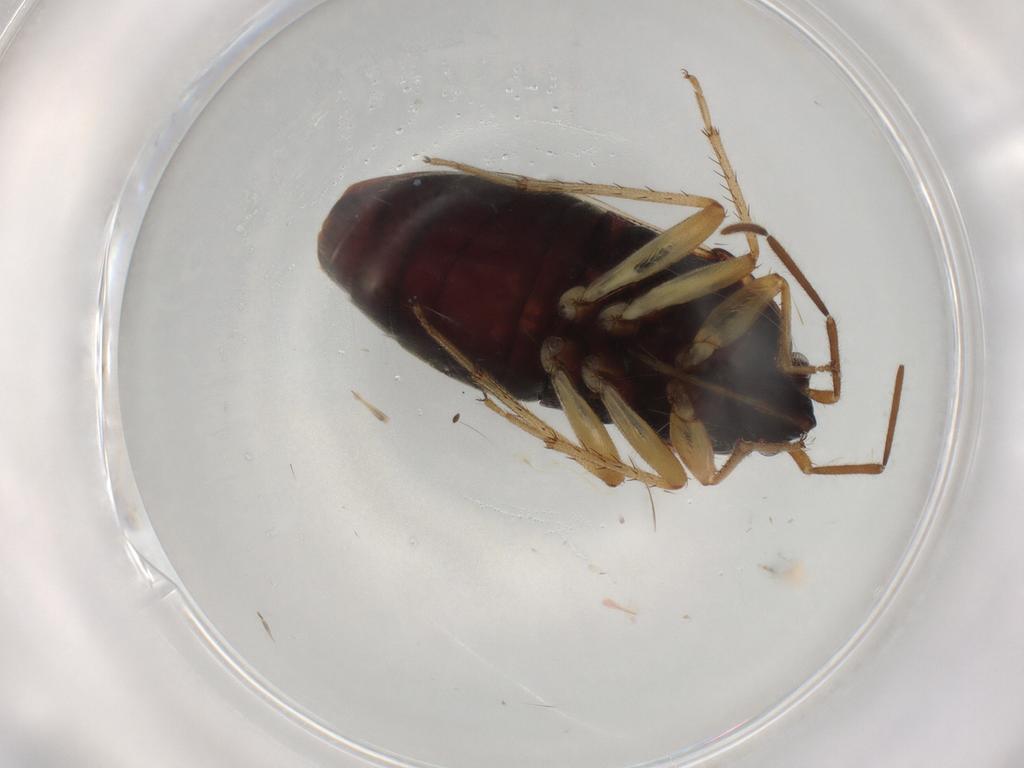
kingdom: Animalia
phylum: Arthropoda
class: Insecta
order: Hemiptera
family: Rhyparochromidae
